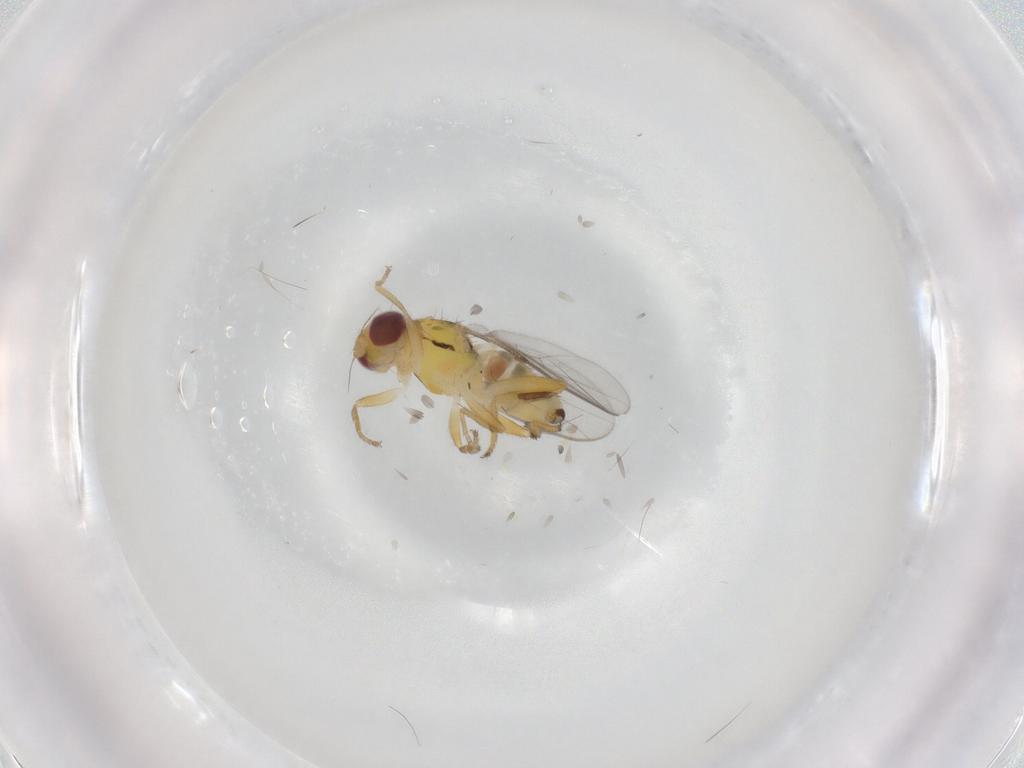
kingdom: Animalia
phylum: Arthropoda
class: Insecta
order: Diptera
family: Chloropidae
